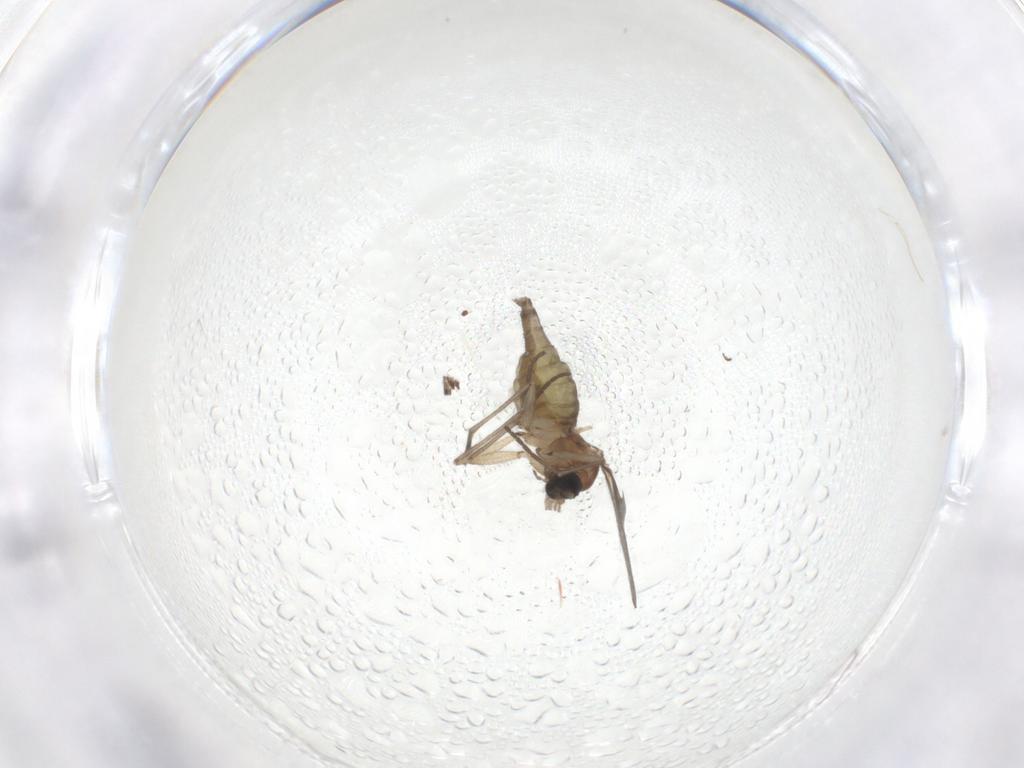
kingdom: Animalia
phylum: Arthropoda
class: Insecta
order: Diptera
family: Sciaridae
